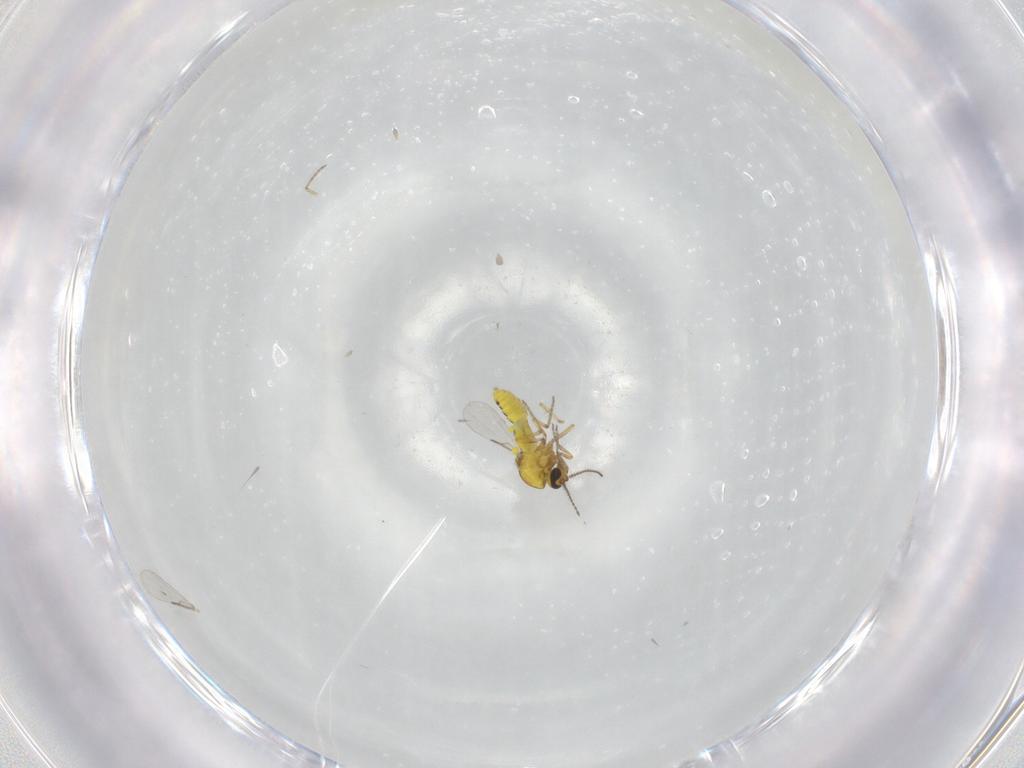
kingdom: Animalia
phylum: Arthropoda
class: Insecta
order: Diptera
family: Ceratopogonidae
